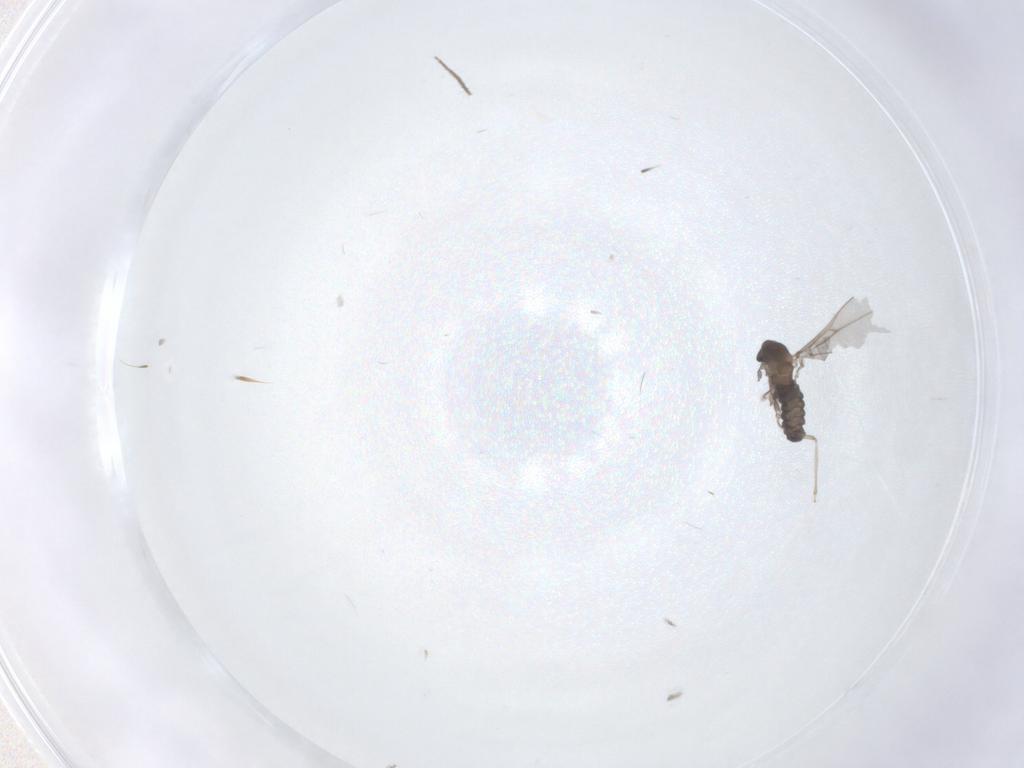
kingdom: Animalia
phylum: Arthropoda
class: Insecta
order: Diptera
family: Chironomidae
